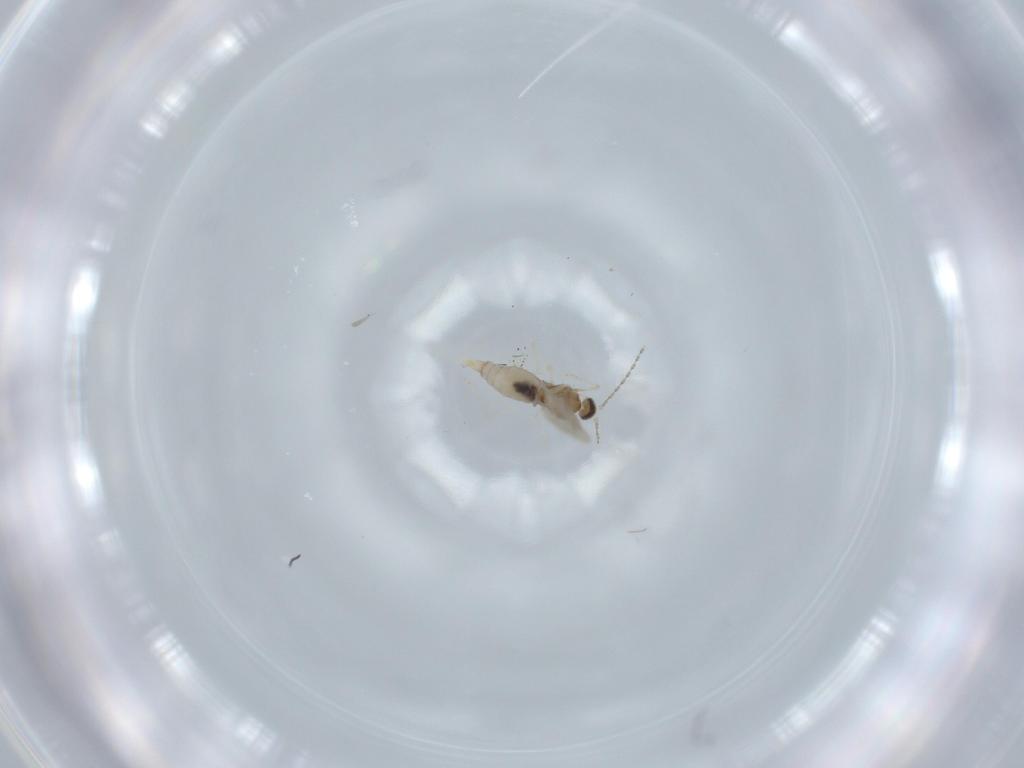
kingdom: Animalia
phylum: Arthropoda
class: Insecta
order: Diptera
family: Cecidomyiidae
